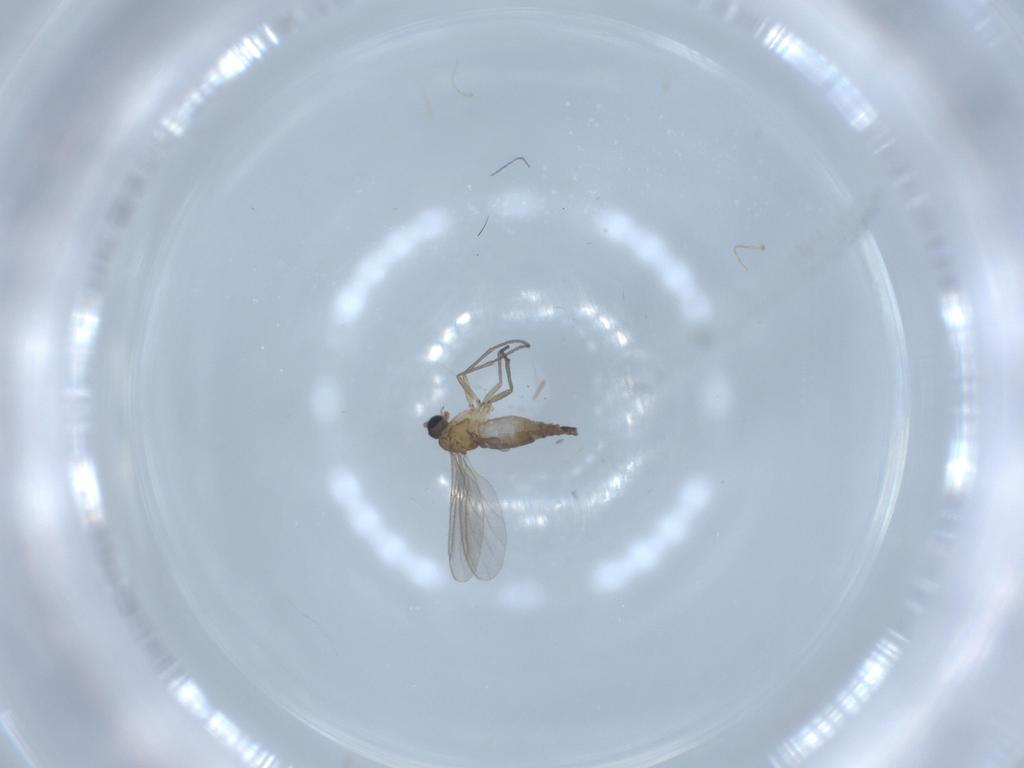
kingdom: Animalia
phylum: Arthropoda
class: Insecta
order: Diptera
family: Sciaridae
